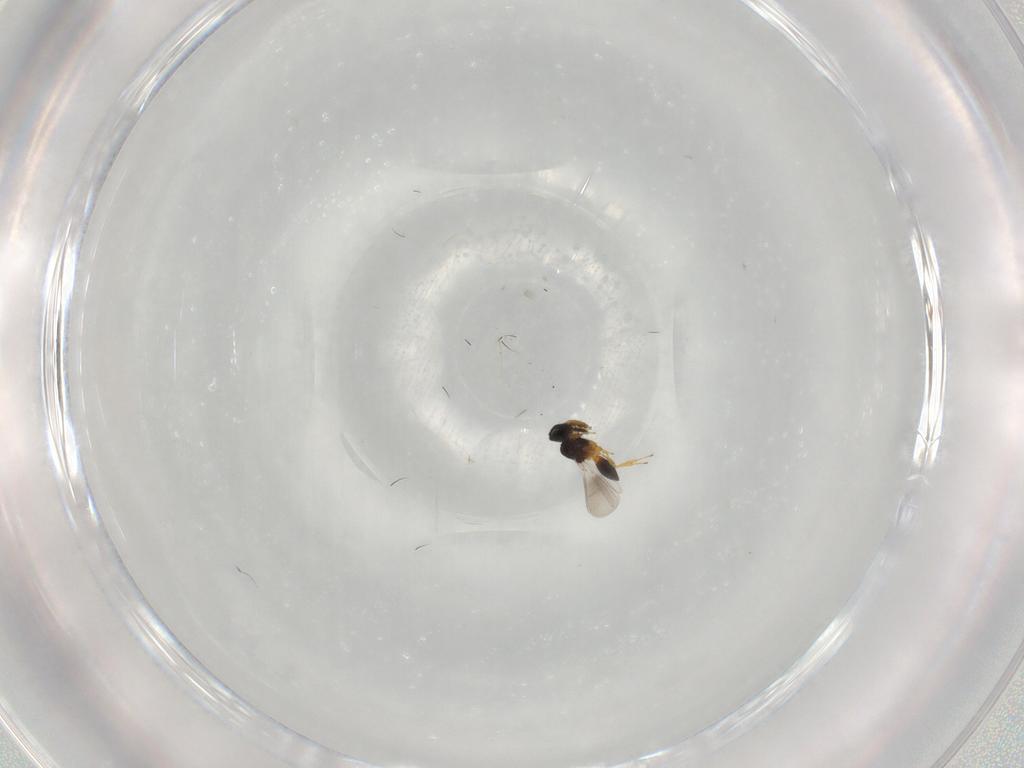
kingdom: Animalia
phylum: Arthropoda
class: Insecta
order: Hymenoptera
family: Platygastridae
